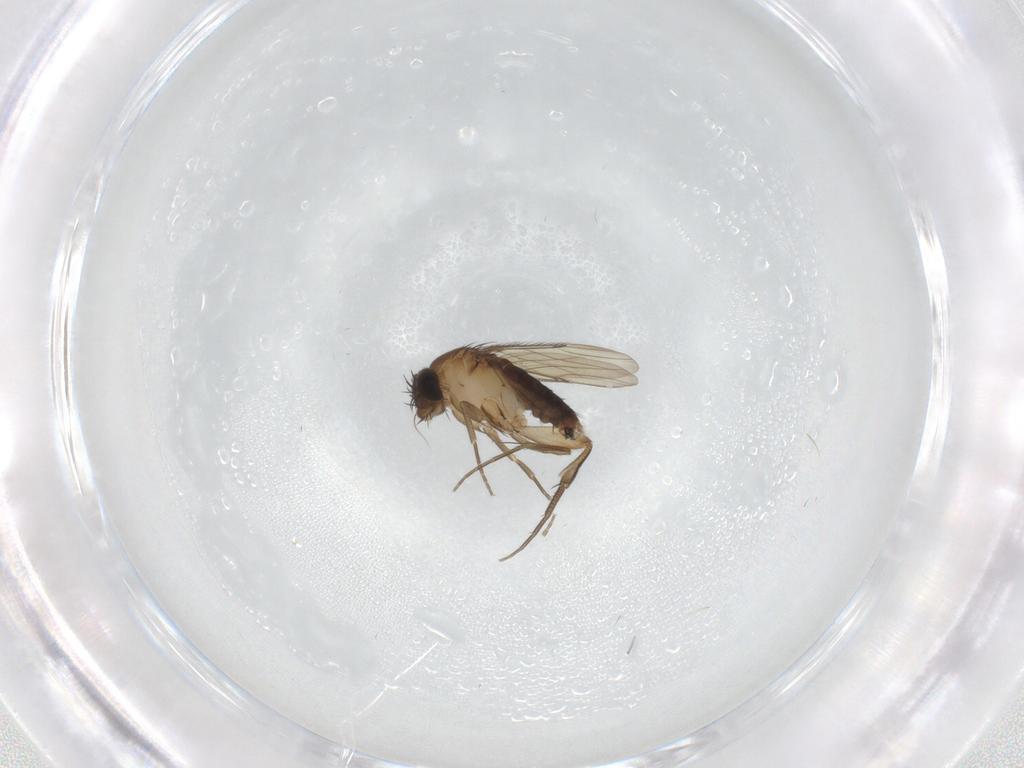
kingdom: Animalia
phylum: Arthropoda
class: Insecta
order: Diptera
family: Phoridae
